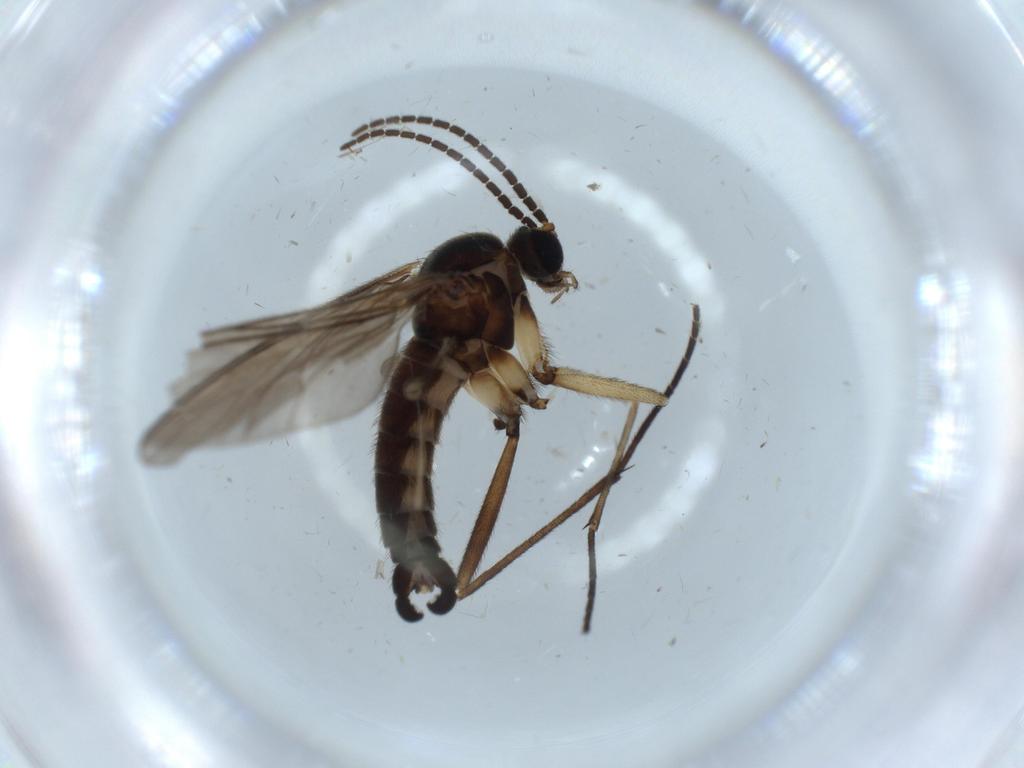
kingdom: Animalia
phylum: Arthropoda
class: Insecta
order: Diptera
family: Sciaridae
